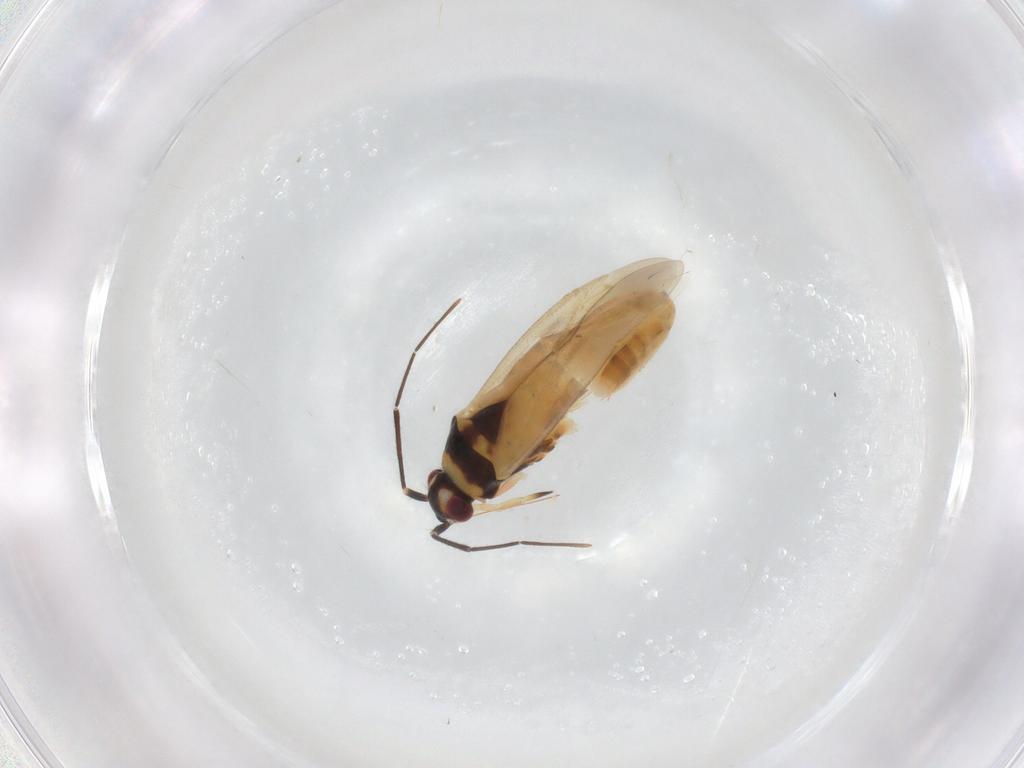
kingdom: Animalia
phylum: Arthropoda
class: Insecta
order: Hemiptera
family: Miridae
